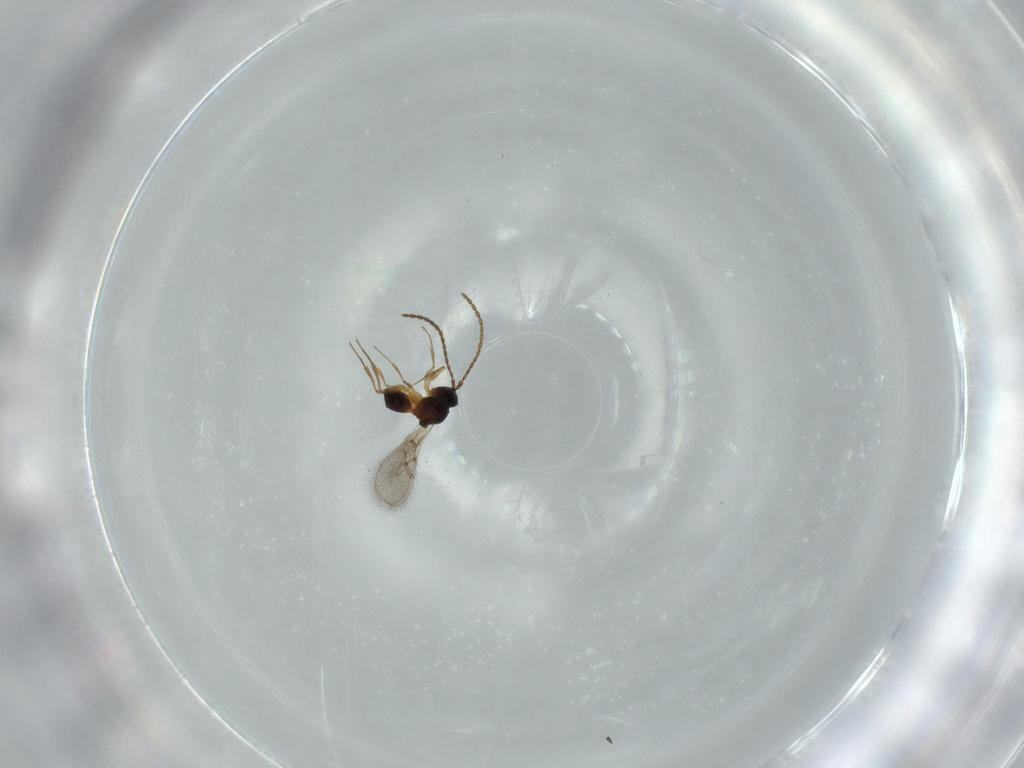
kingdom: Animalia
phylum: Arthropoda
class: Insecta
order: Hymenoptera
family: Figitidae
